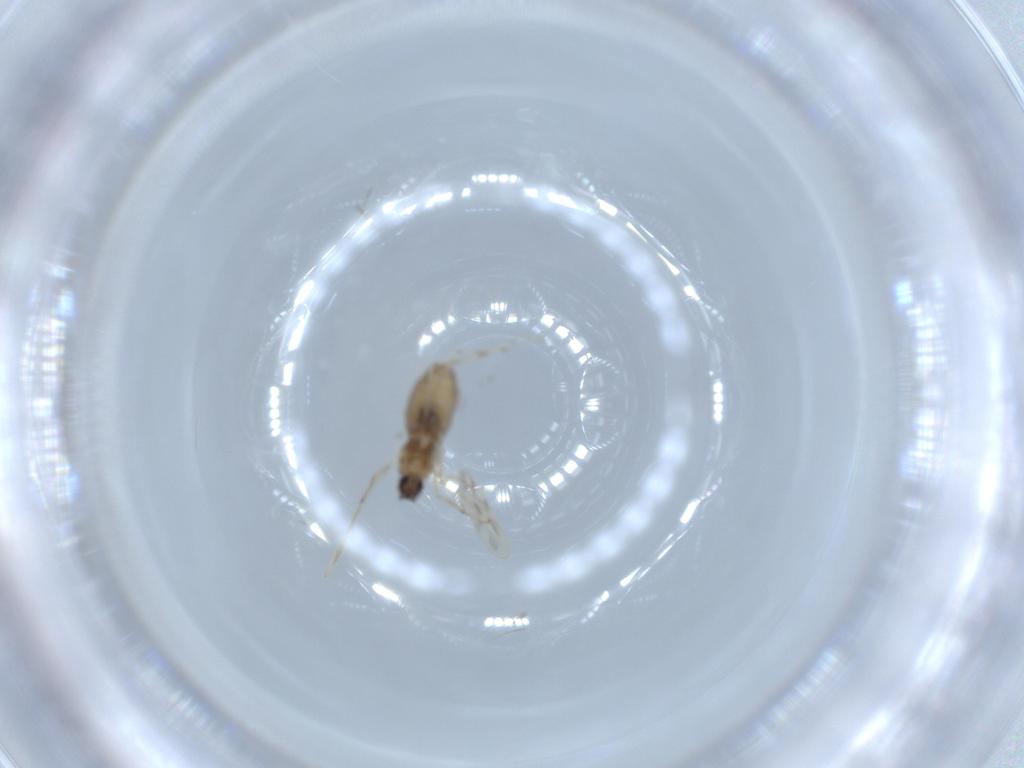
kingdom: Animalia
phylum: Arthropoda
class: Insecta
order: Diptera
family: Cecidomyiidae
